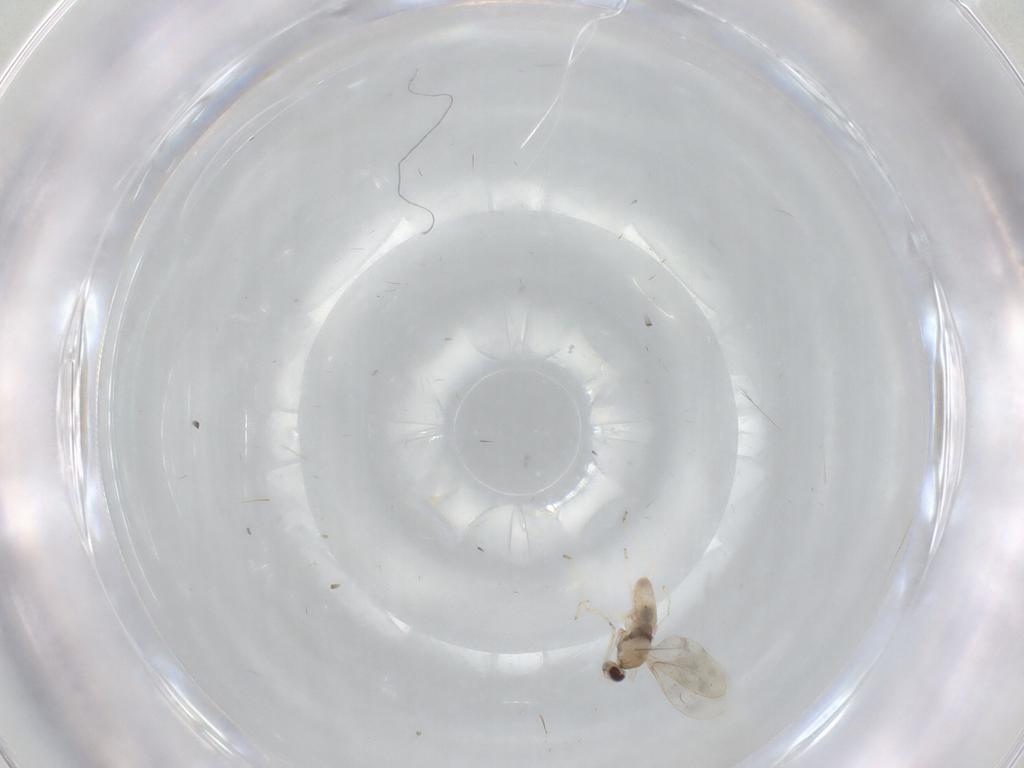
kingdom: Animalia
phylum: Arthropoda
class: Insecta
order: Diptera
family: Cecidomyiidae
